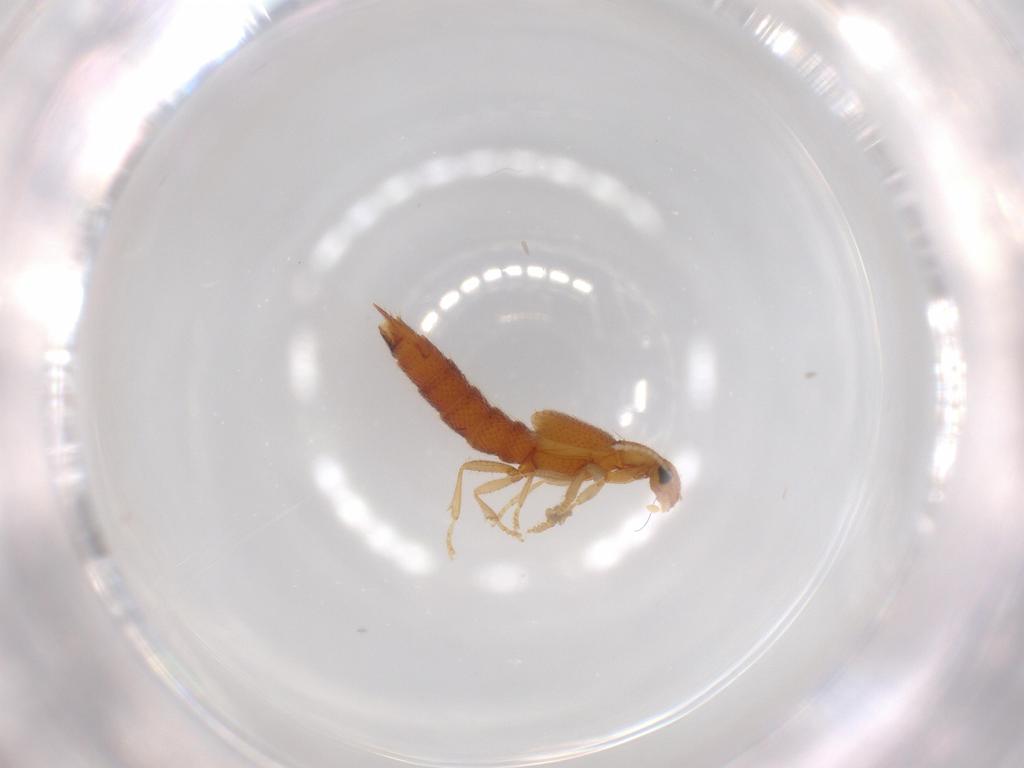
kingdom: Animalia
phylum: Arthropoda
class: Insecta
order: Coleoptera
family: Staphylinidae
